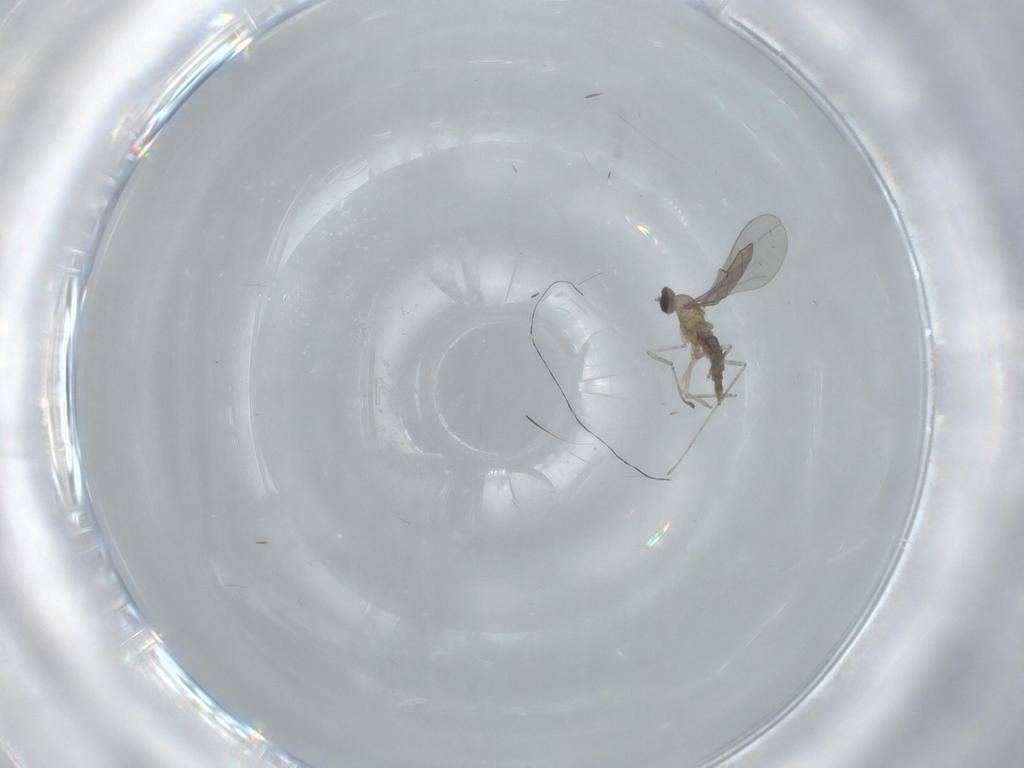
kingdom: Animalia
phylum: Arthropoda
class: Insecta
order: Diptera
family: Cecidomyiidae
